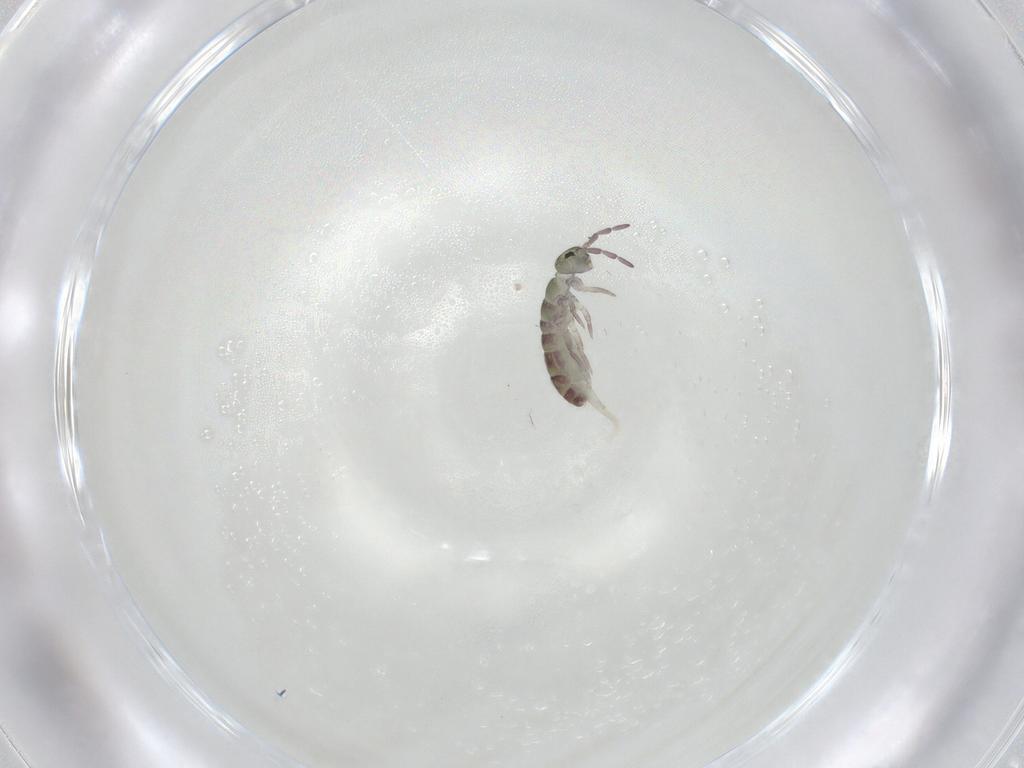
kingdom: Animalia
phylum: Arthropoda
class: Collembola
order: Entomobryomorpha
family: Isotomidae
